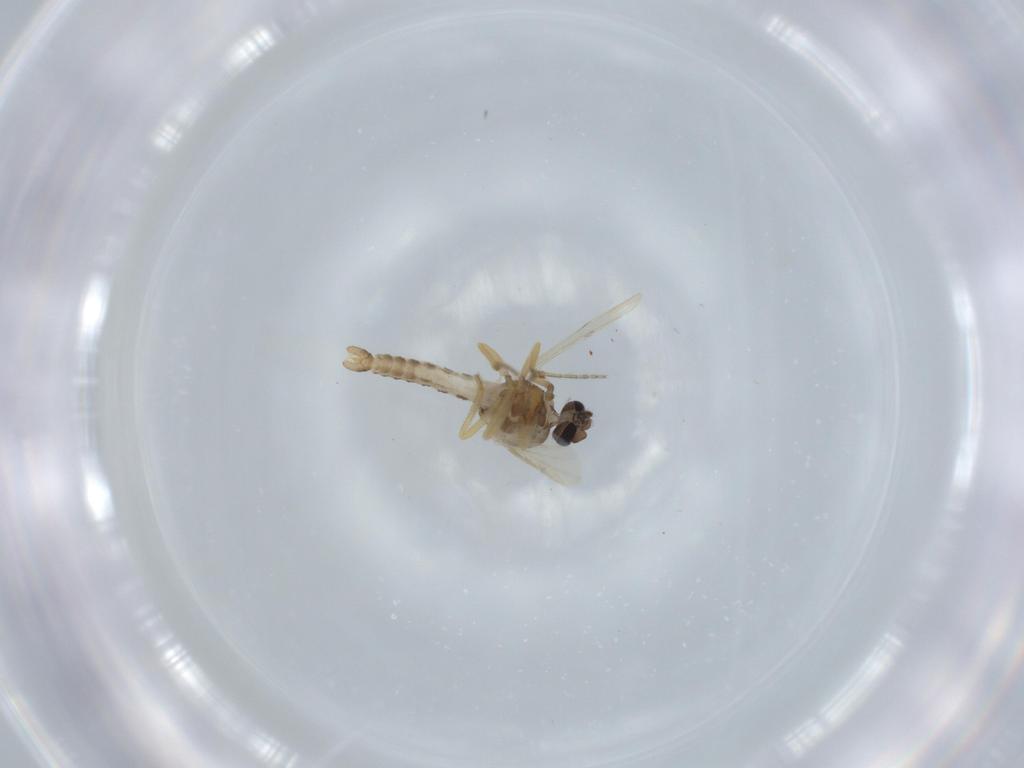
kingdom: Animalia
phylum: Arthropoda
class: Insecta
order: Diptera
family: Ceratopogonidae
